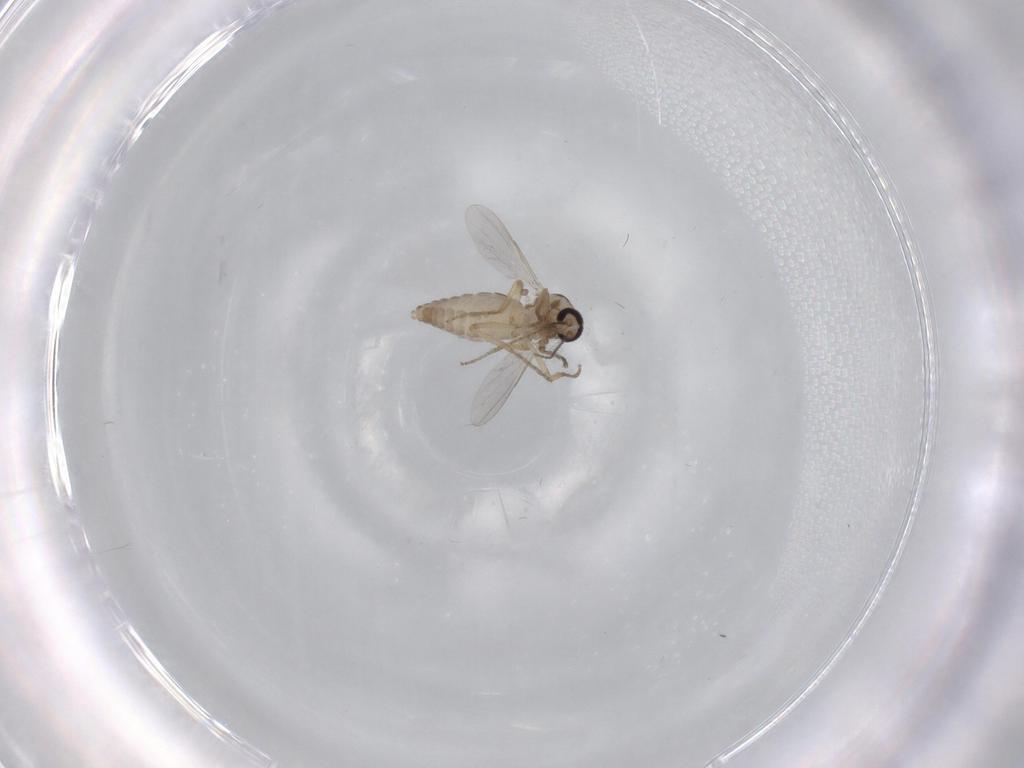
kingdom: Animalia
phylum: Arthropoda
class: Insecta
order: Diptera
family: Ceratopogonidae
